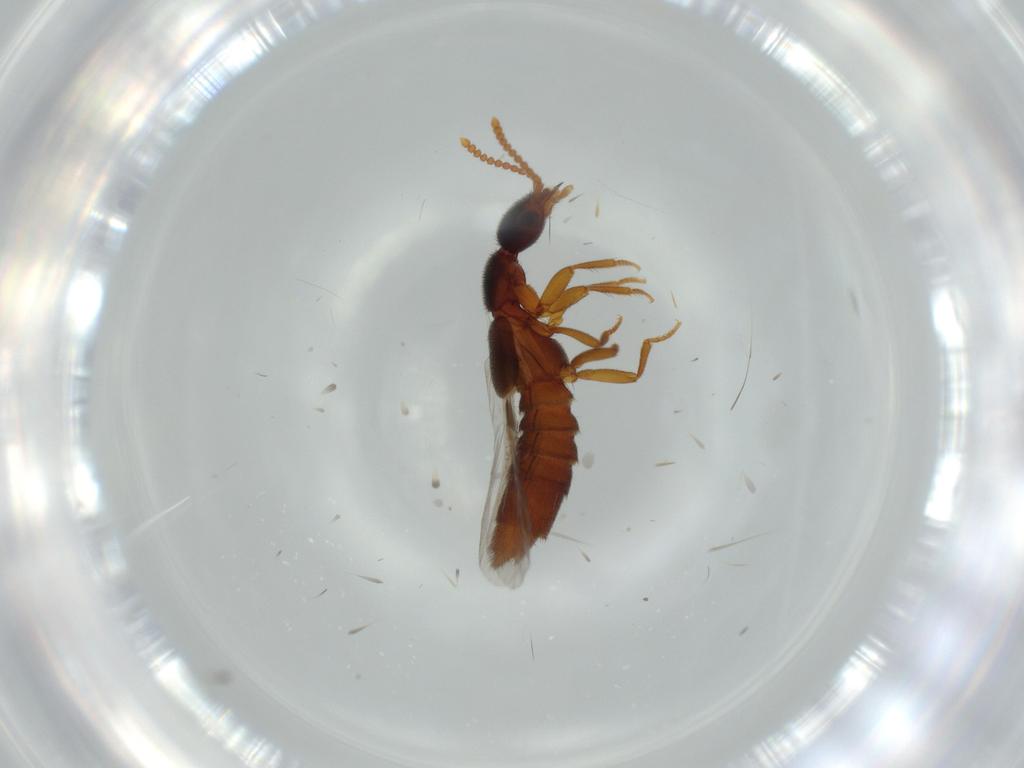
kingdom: Animalia
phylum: Arthropoda
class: Insecta
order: Coleoptera
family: Staphylinidae
